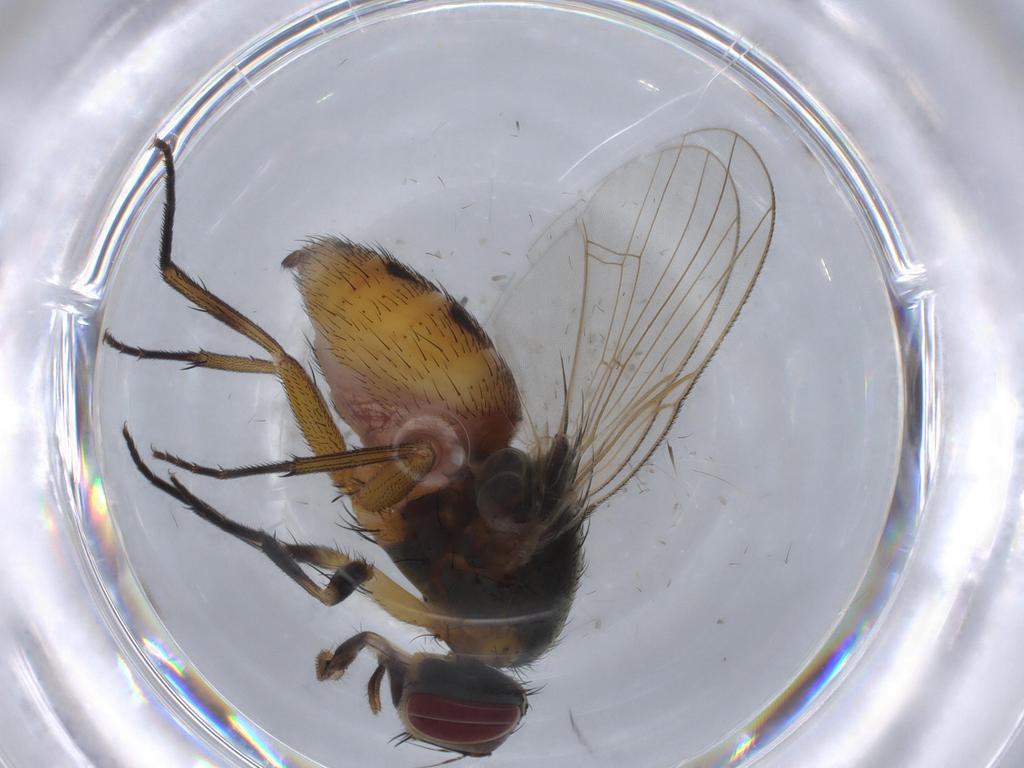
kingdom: Animalia
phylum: Arthropoda
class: Insecta
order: Diptera
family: Muscidae
